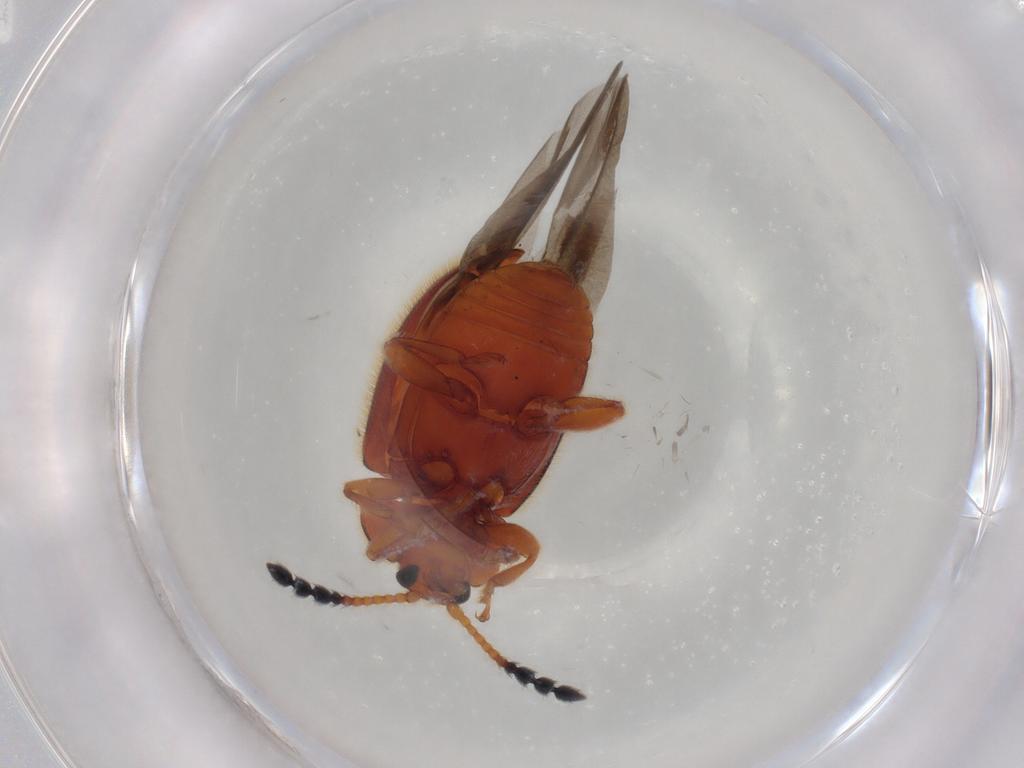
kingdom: Animalia
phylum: Arthropoda
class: Insecta
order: Coleoptera
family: Endomychidae
